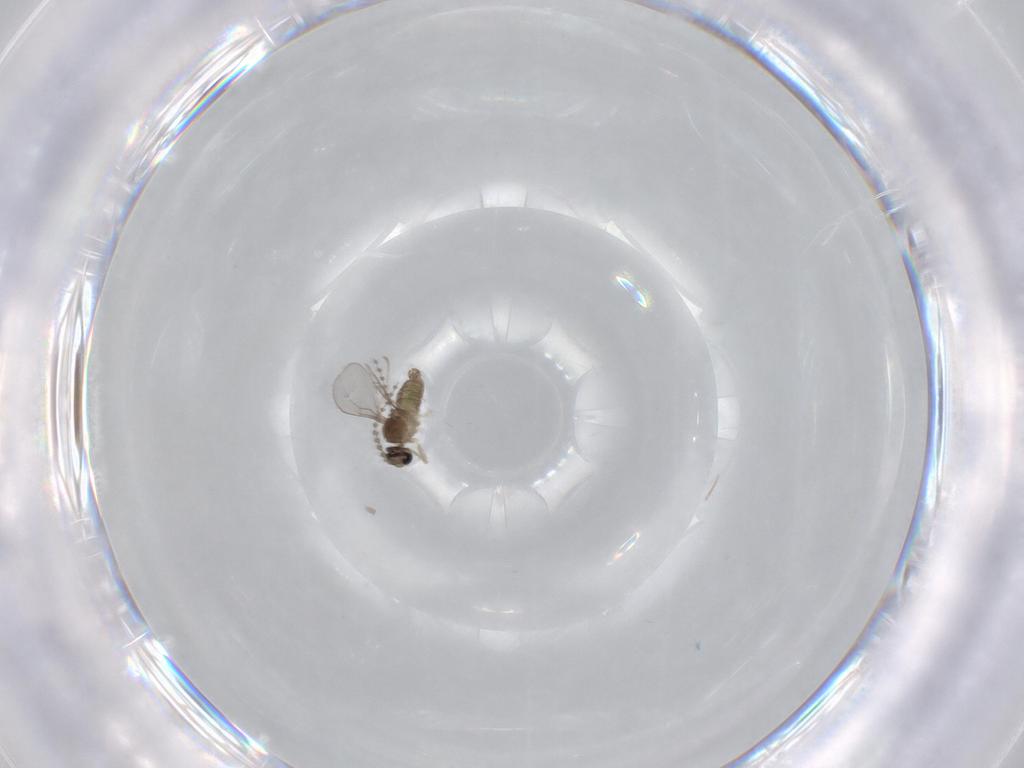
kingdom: Animalia
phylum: Arthropoda
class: Insecta
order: Diptera
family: Cecidomyiidae
